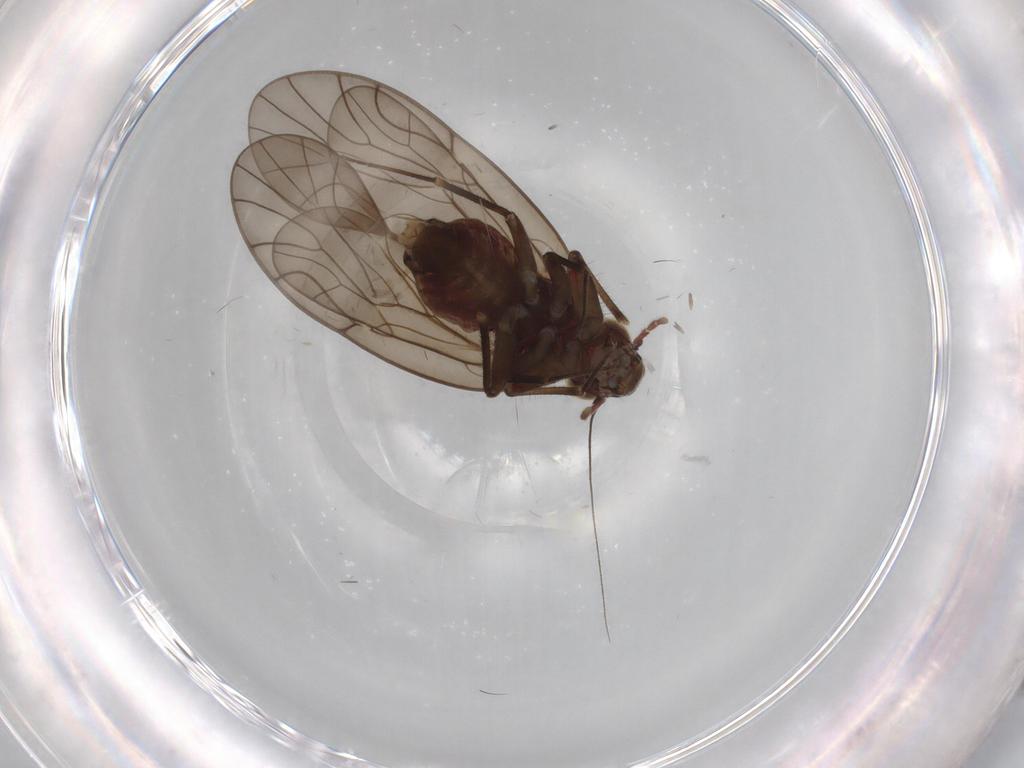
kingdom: Animalia
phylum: Arthropoda
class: Insecta
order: Psocodea
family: Philotarsidae
